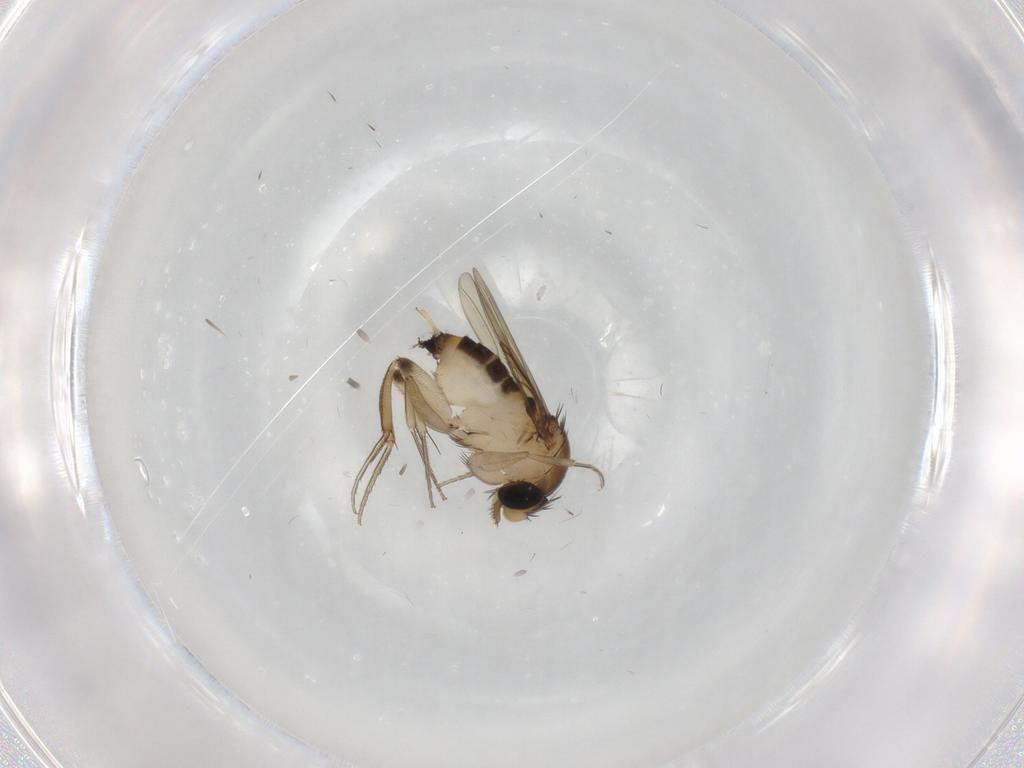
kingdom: Animalia
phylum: Arthropoda
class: Insecta
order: Diptera
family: Phoridae
